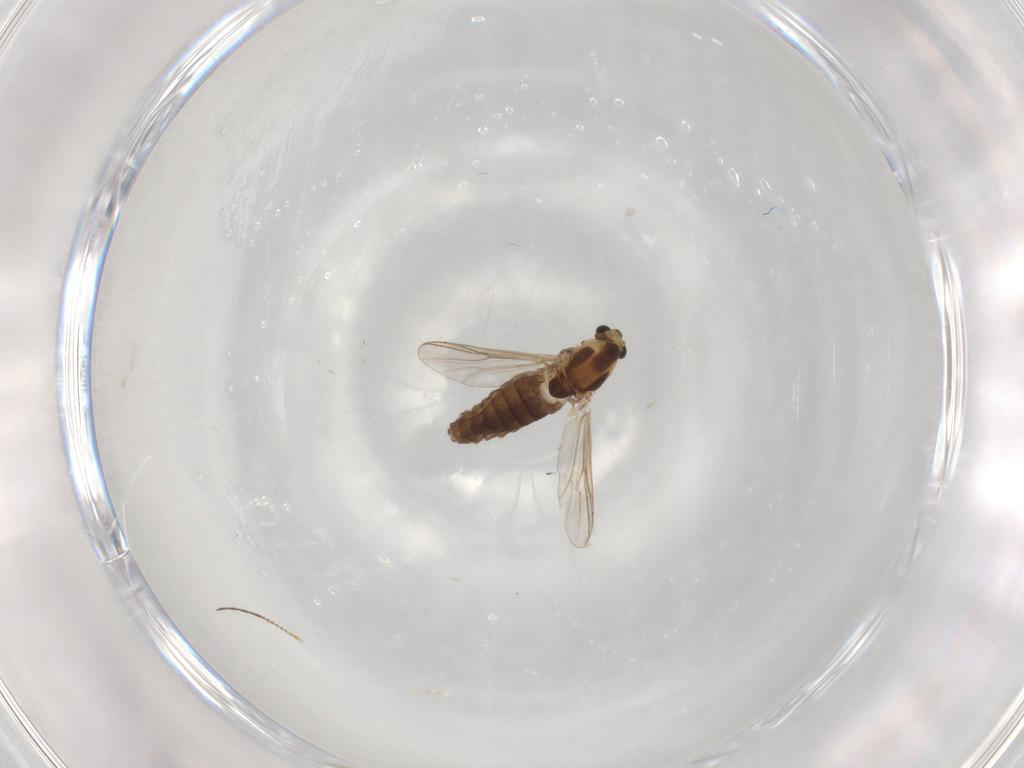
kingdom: Animalia
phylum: Arthropoda
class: Insecta
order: Diptera
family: Chironomidae
